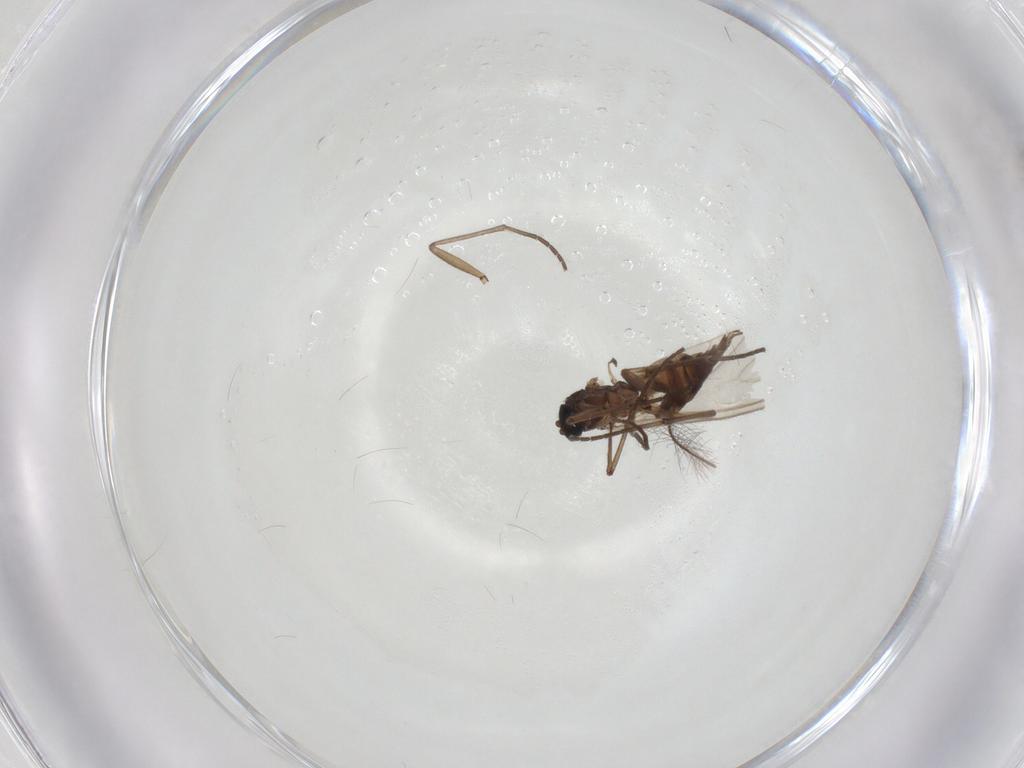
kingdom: Animalia
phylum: Arthropoda
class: Insecta
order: Diptera
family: Sciaridae
